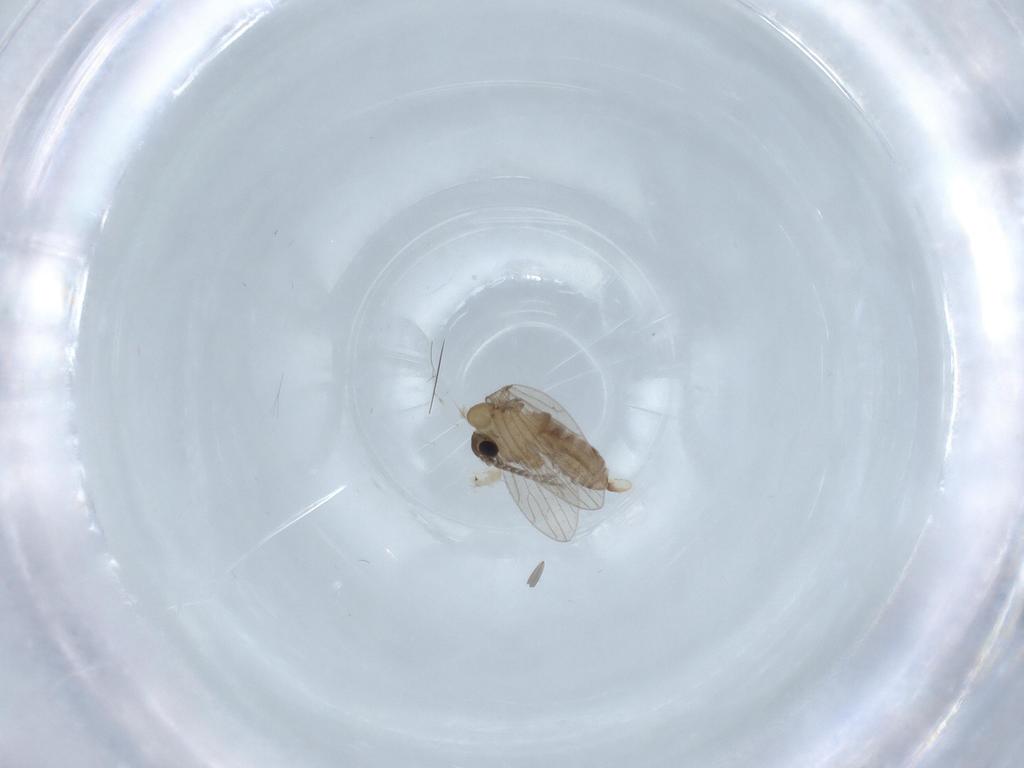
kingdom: Animalia
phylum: Arthropoda
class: Insecta
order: Diptera
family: Psychodidae
